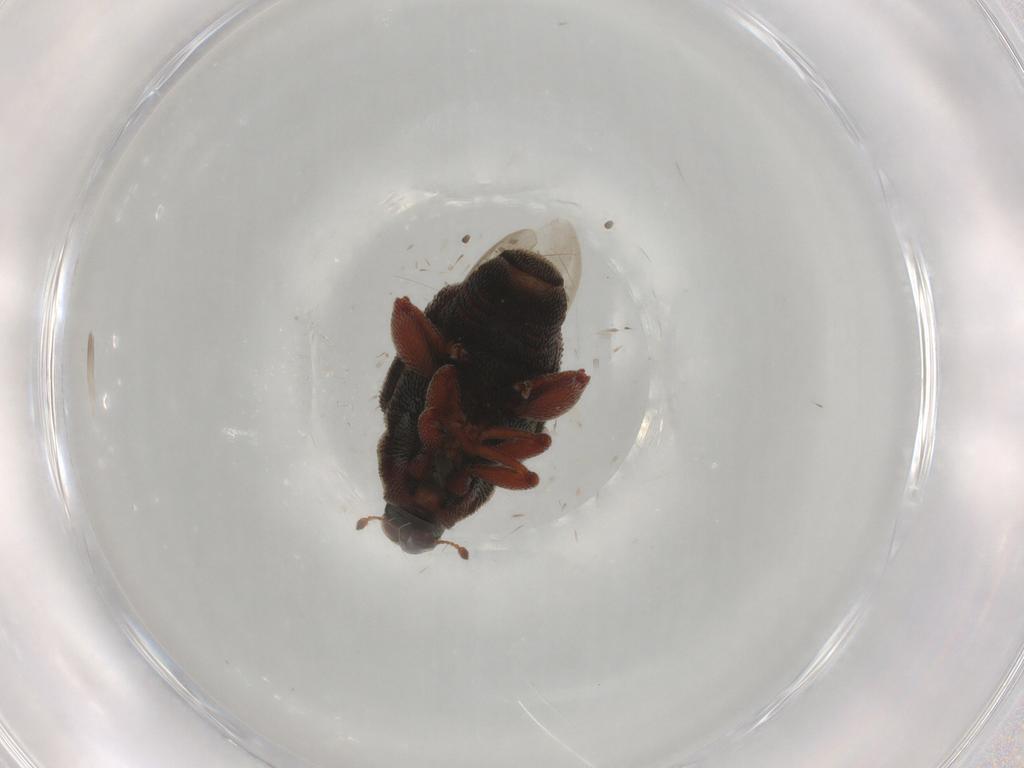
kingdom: Animalia
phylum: Arthropoda
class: Insecta
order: Coleoptera
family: Curculionidae
